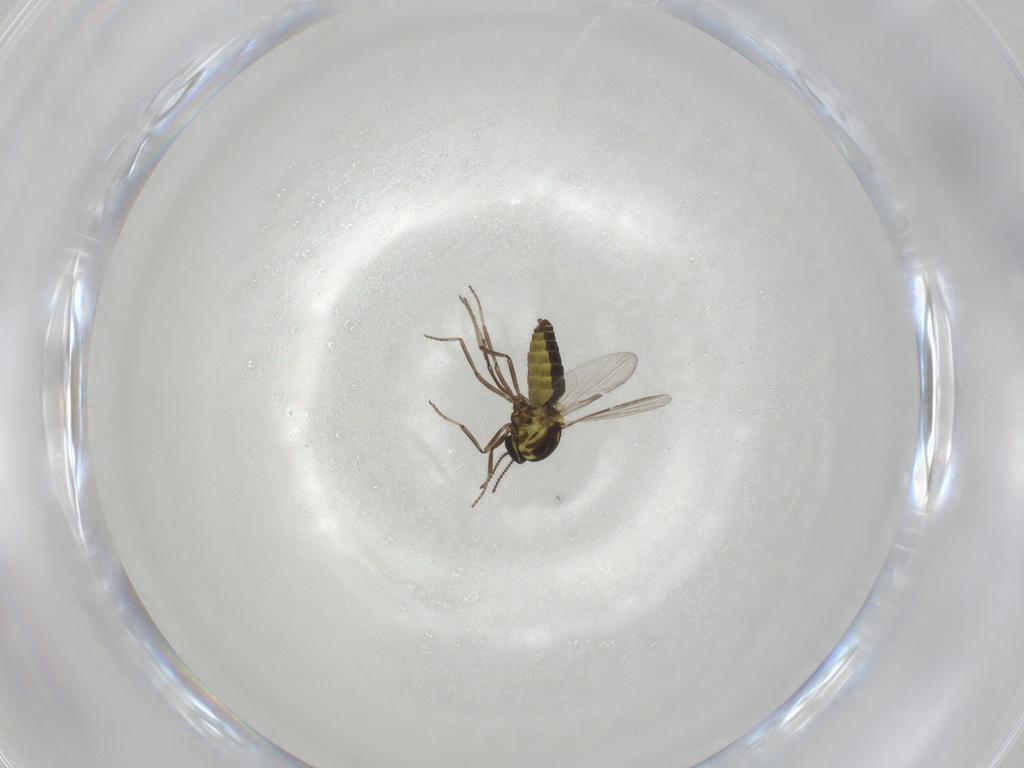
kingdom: Animalia
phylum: Arthropoda
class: Insecta
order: Diptera
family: Ceratopogonidae
